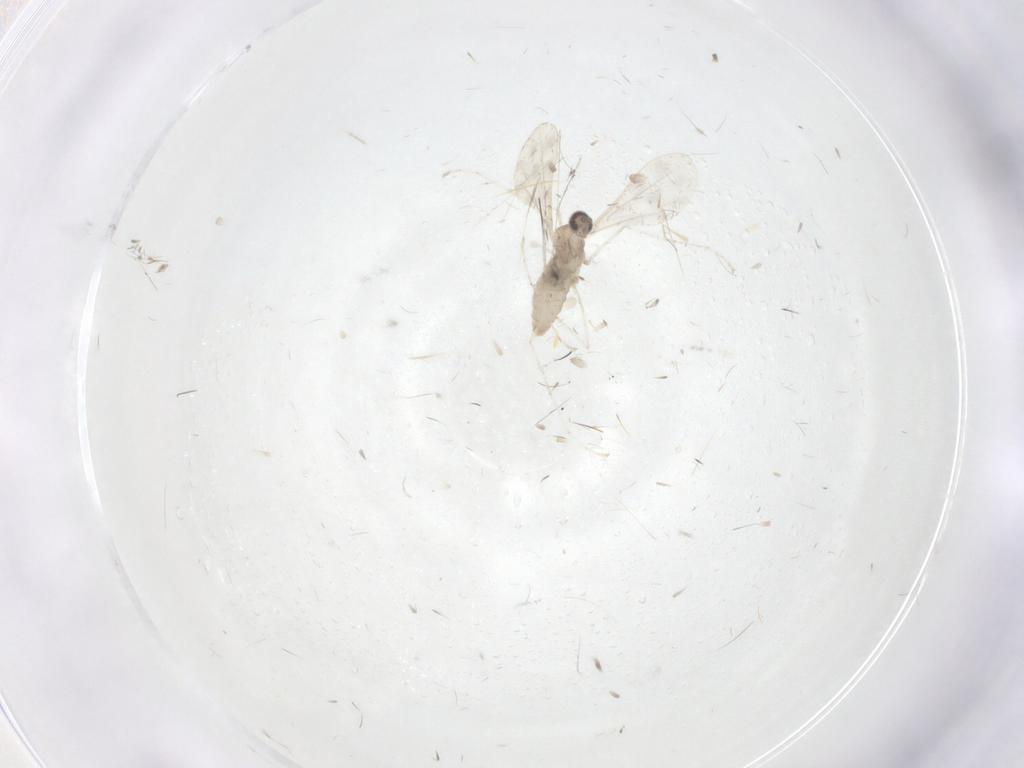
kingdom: Animalia
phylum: Arthropoda
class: Insecta
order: Diptera
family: Cecidomyiidae
